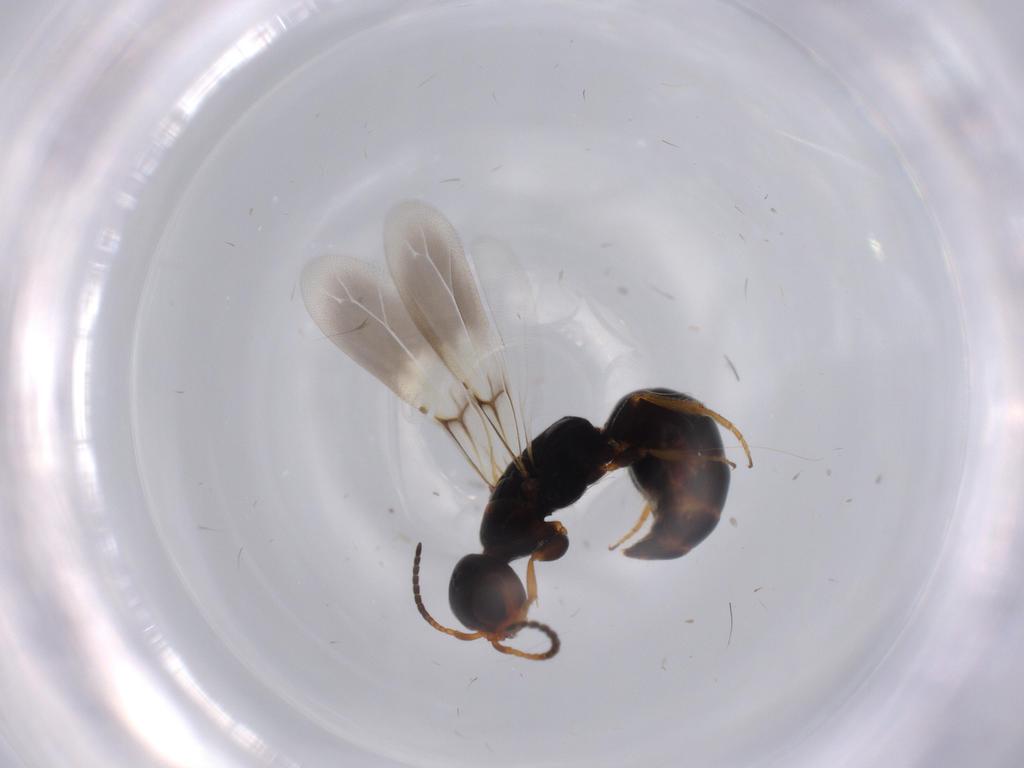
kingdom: Animalia
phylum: Arthropoda
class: Insecta
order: Hymenoptera
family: Bethylidae
